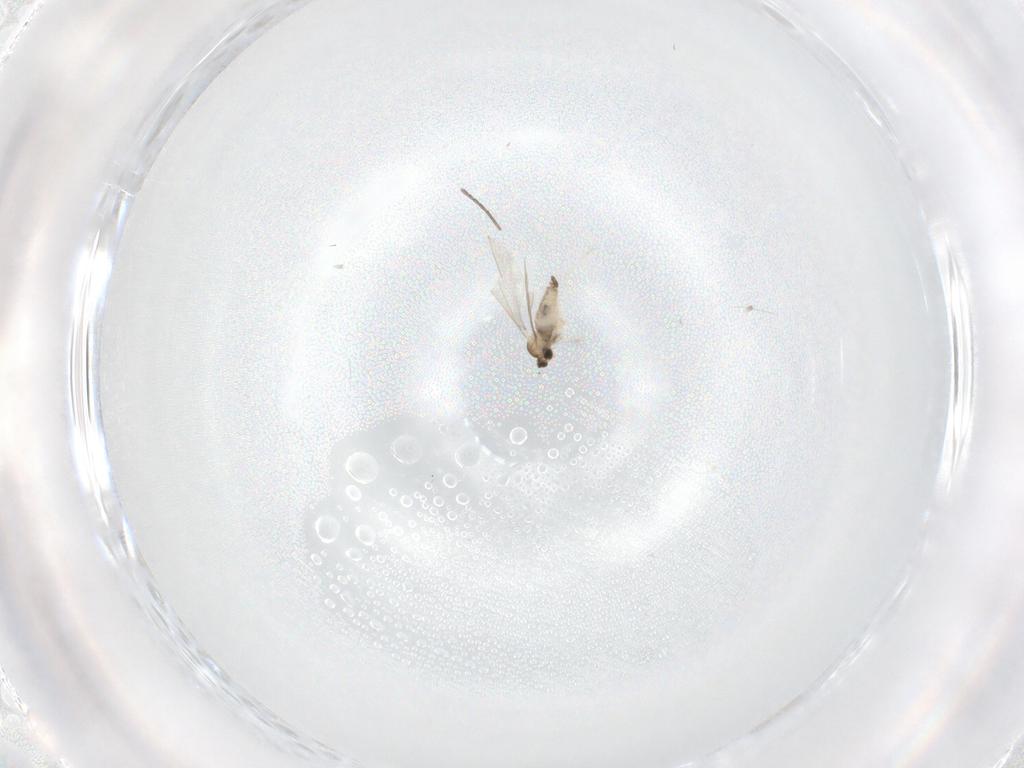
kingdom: Animalia
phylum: Arthropoda
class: Insecta
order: Diptera
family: Cecidomyiidae
